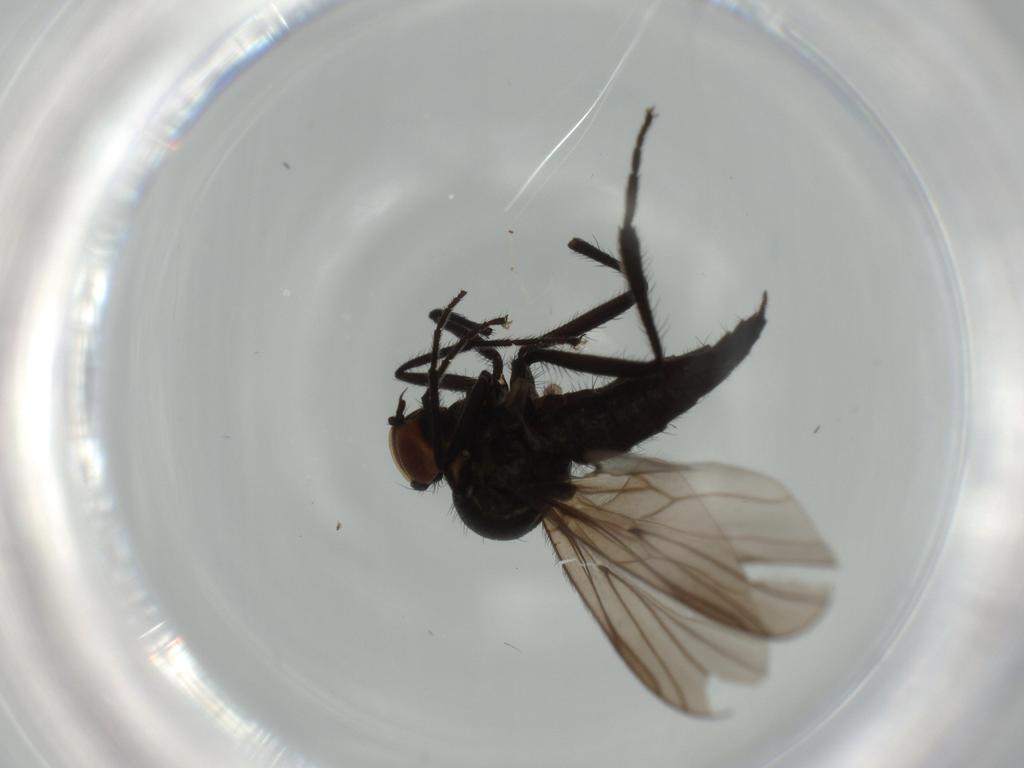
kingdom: Animalia
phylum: Arthropoda
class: Insecta
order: Diptera
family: Hybotidae
